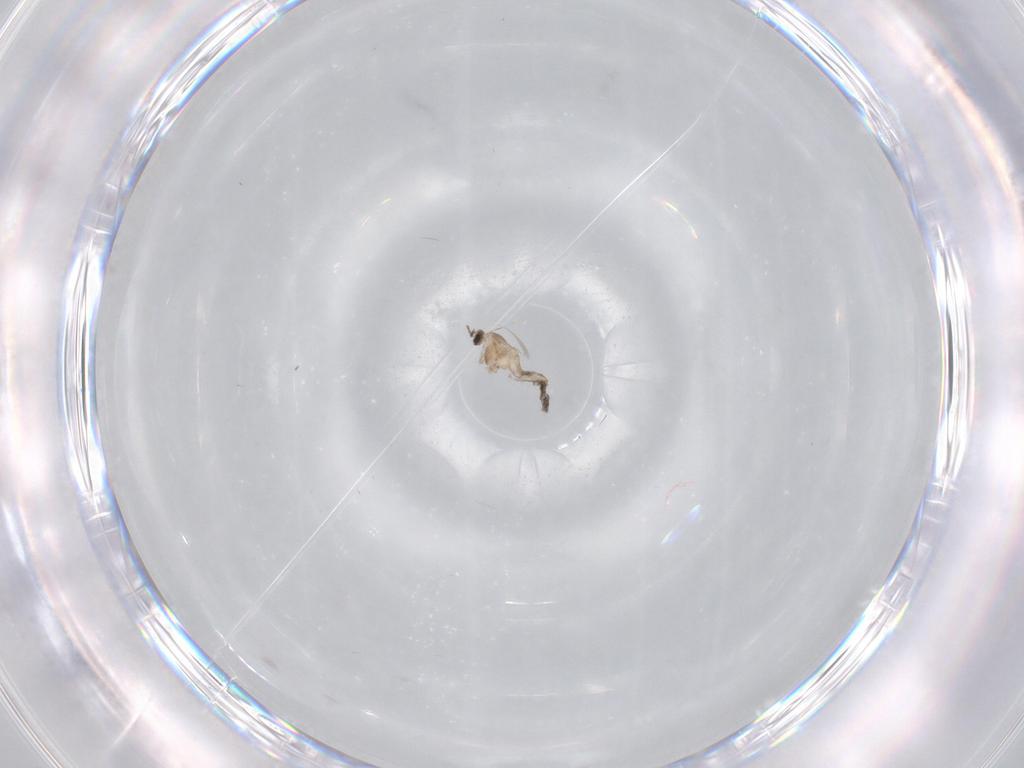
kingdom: Animalia
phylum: Arthropoda
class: Insecta
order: Diptera
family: Cecidomyiidae
